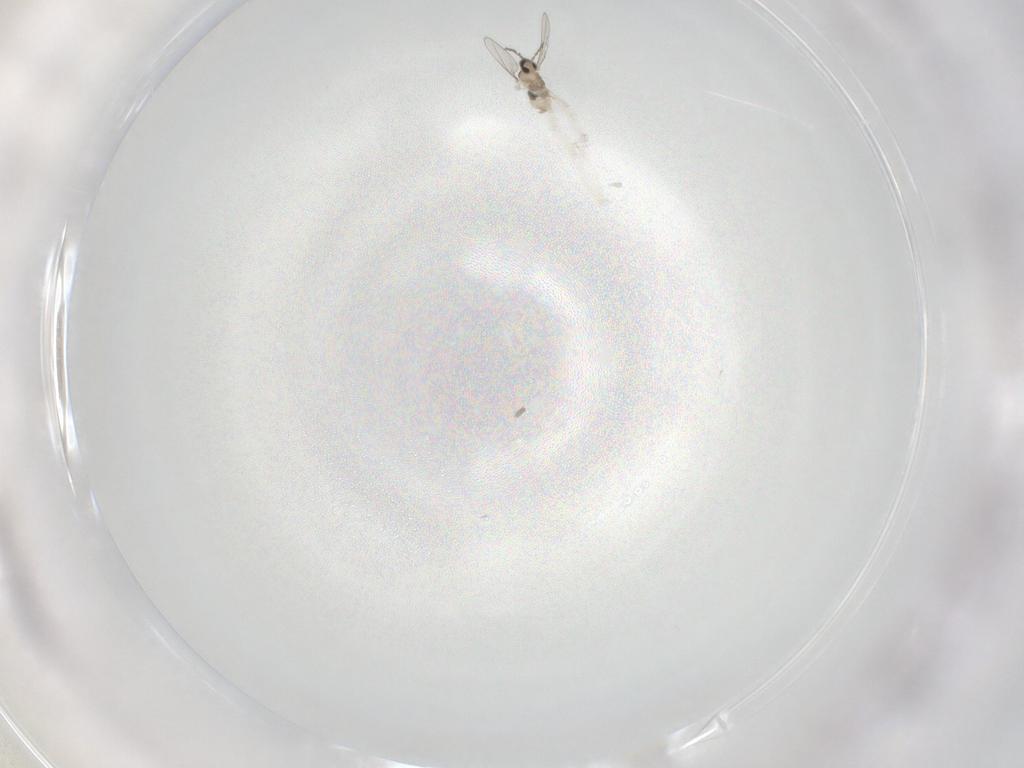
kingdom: Animalia
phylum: Arthropoda
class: Insecta
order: Diptera
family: Cecidomyiidae
